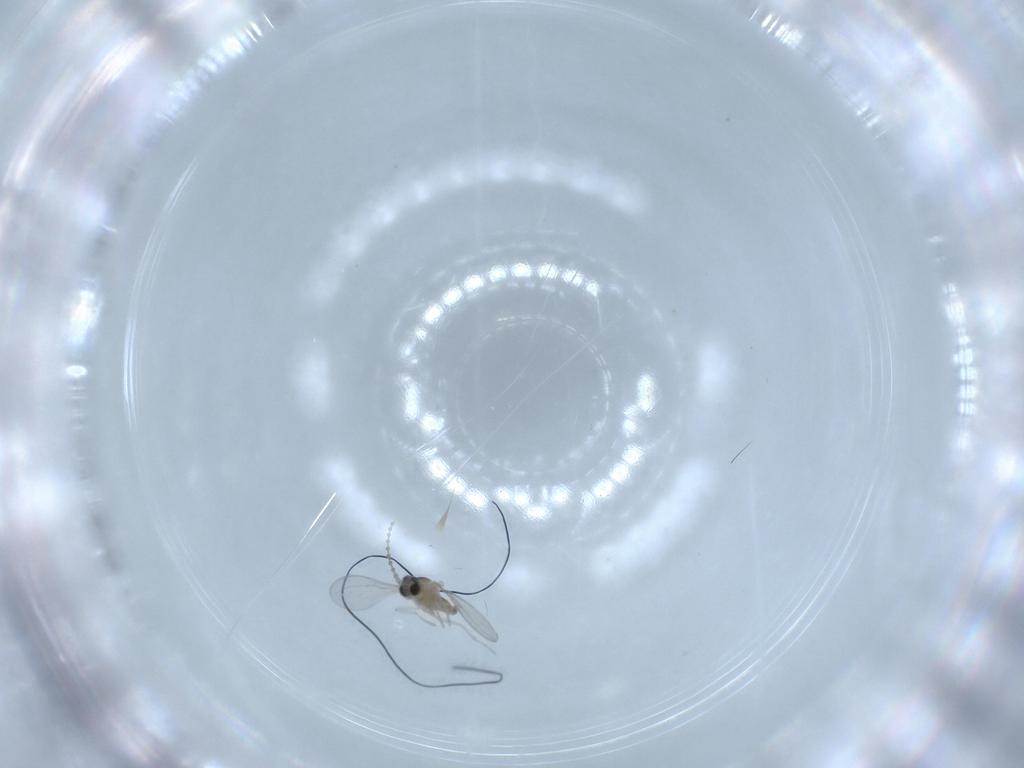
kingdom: Animalia
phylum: Arthropoda
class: Insecta
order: Diptera
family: Cecidomyiidae
